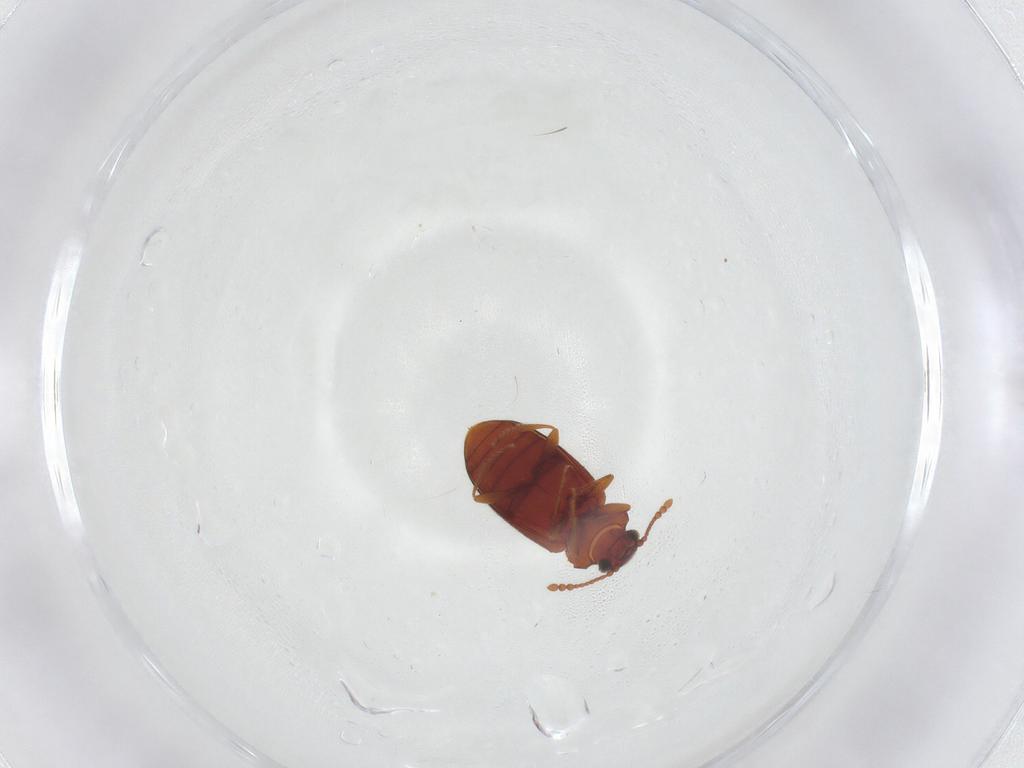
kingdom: Animalia
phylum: Arthropoda
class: Insecta
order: Coleoptera
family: Cryptophagidae
